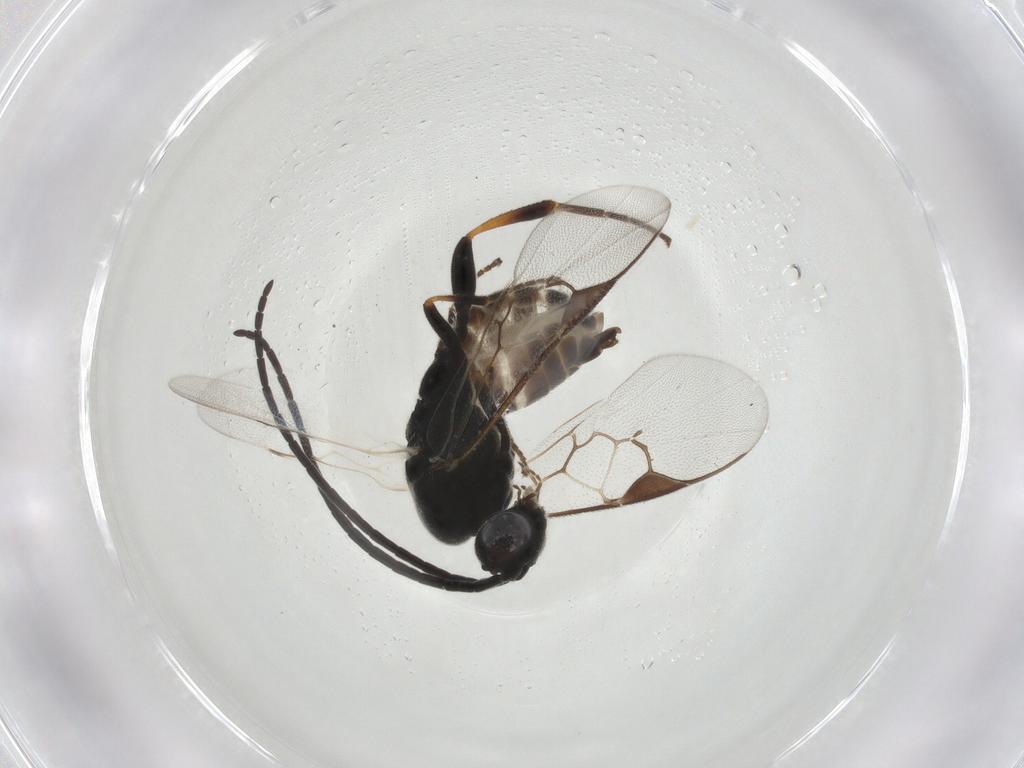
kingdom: Animalia
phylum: Arthropoda
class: Insecta
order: Hymenoptera
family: Braconidae
